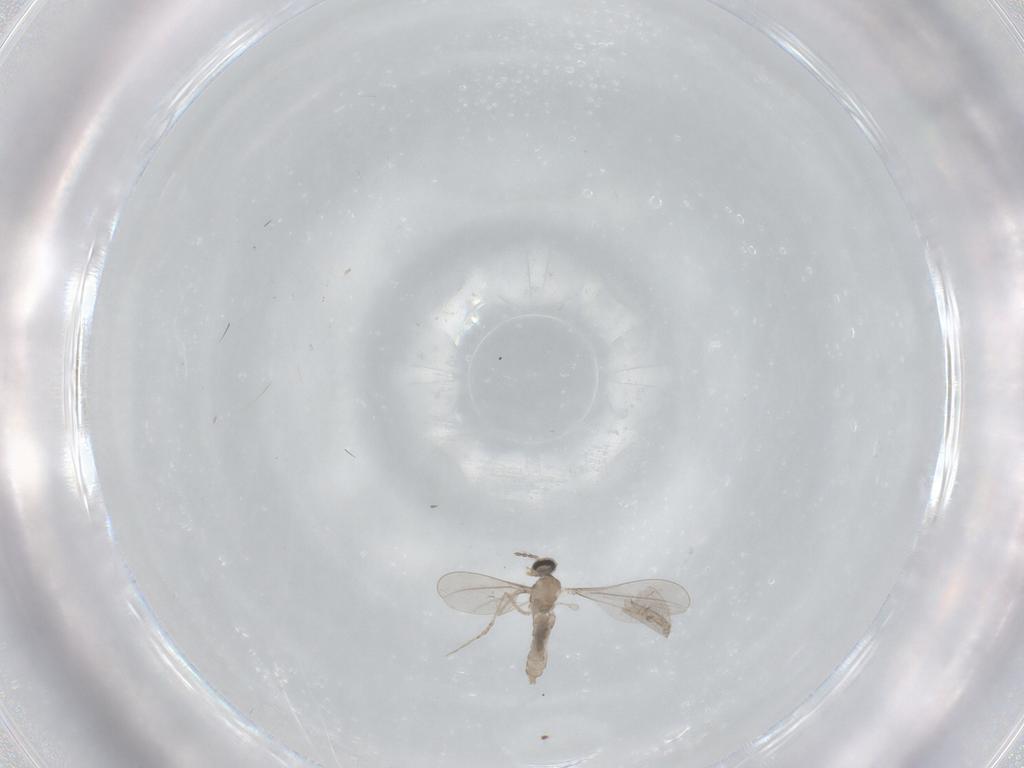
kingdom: Animalia
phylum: Arthropoda
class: Insecta
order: Diptera
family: Cecidomyiidae
